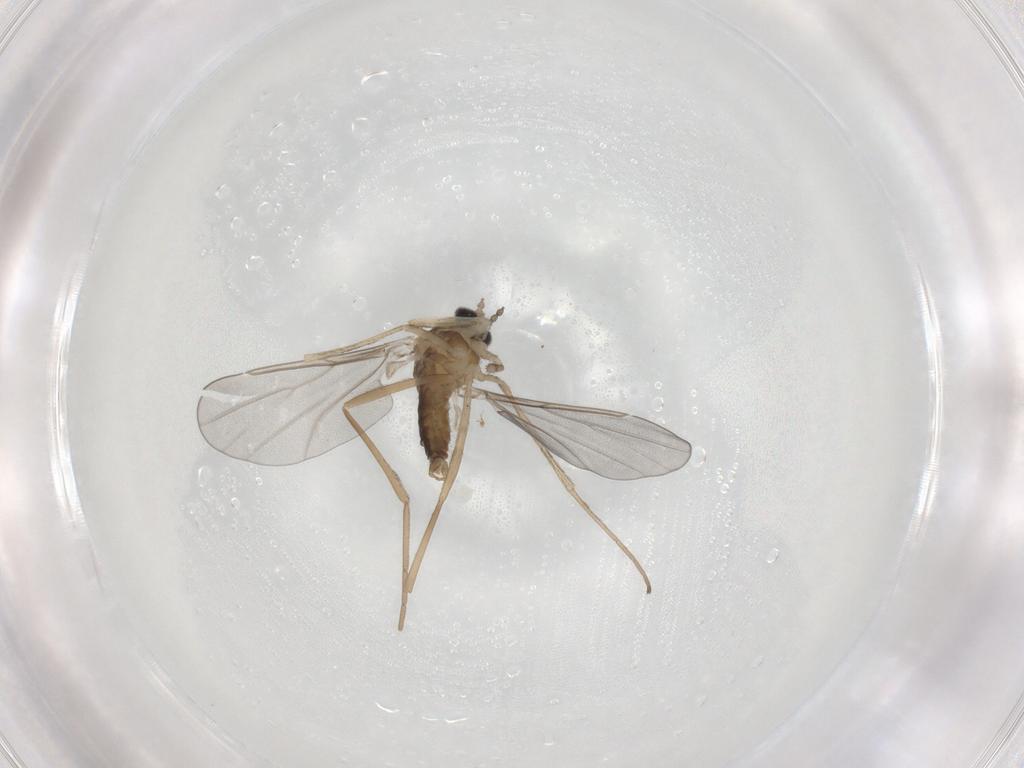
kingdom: Animalia
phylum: Arthropoda
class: Insecta
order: Diptera
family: Cecidomyiidae
